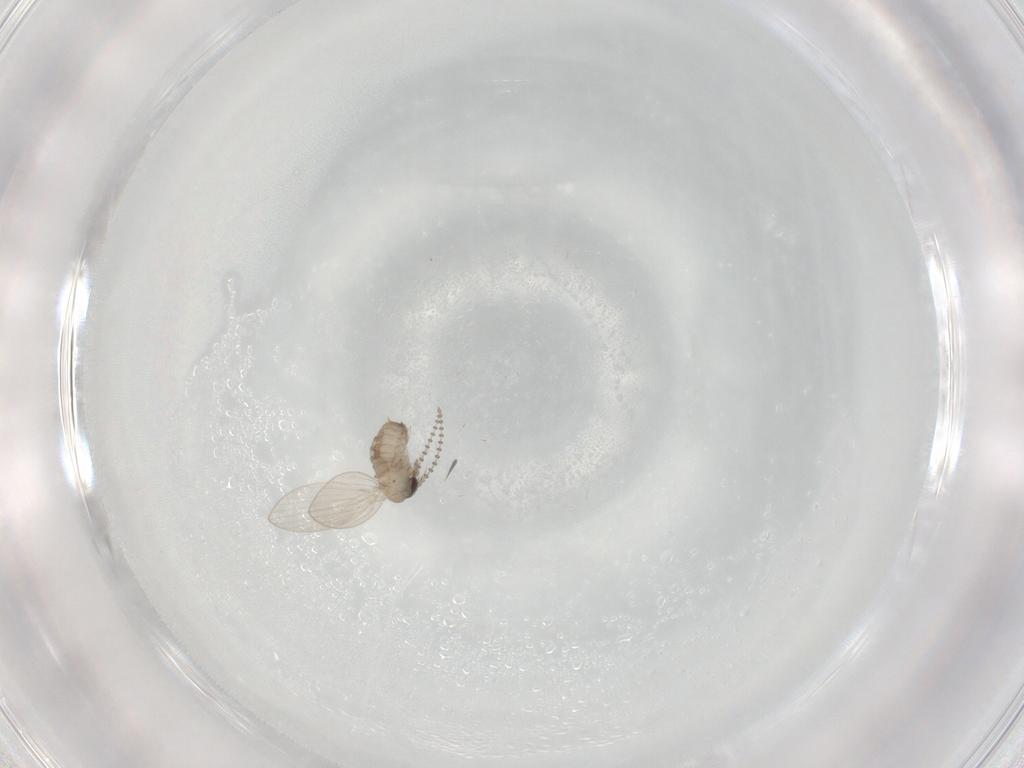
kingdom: Animalia
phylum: Arthropoda
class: Insecta
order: Diptera
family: Psychodidae
